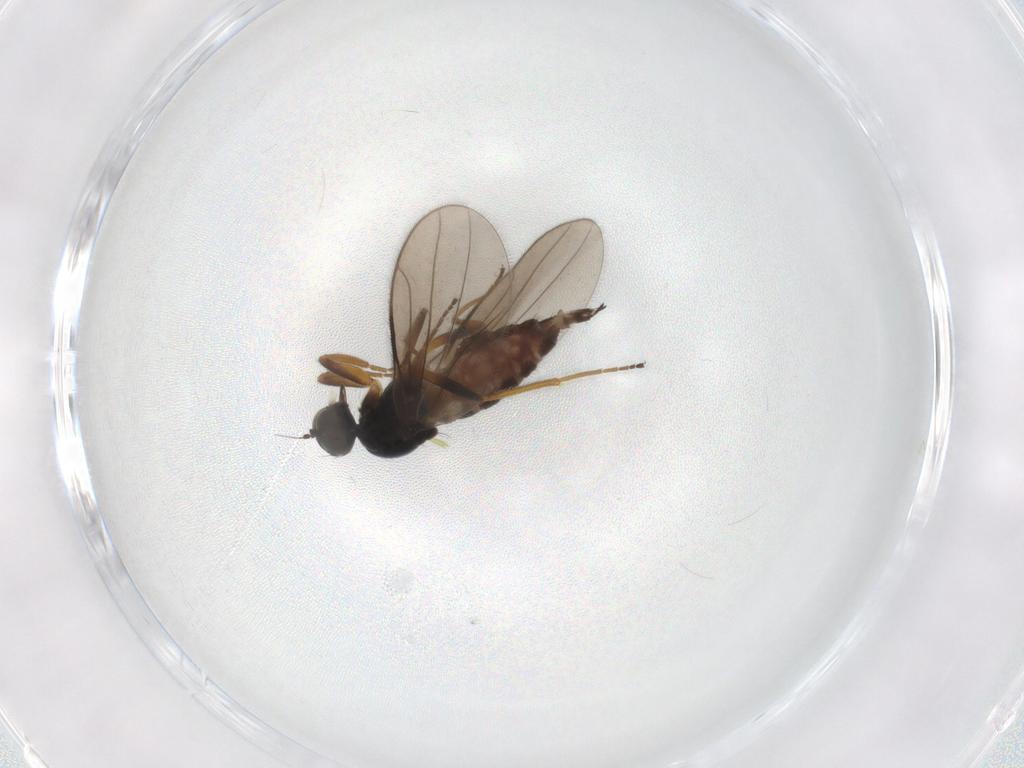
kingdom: Animalia
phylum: Arthropoda
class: Insecta
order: Diptera
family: Hybotidae
